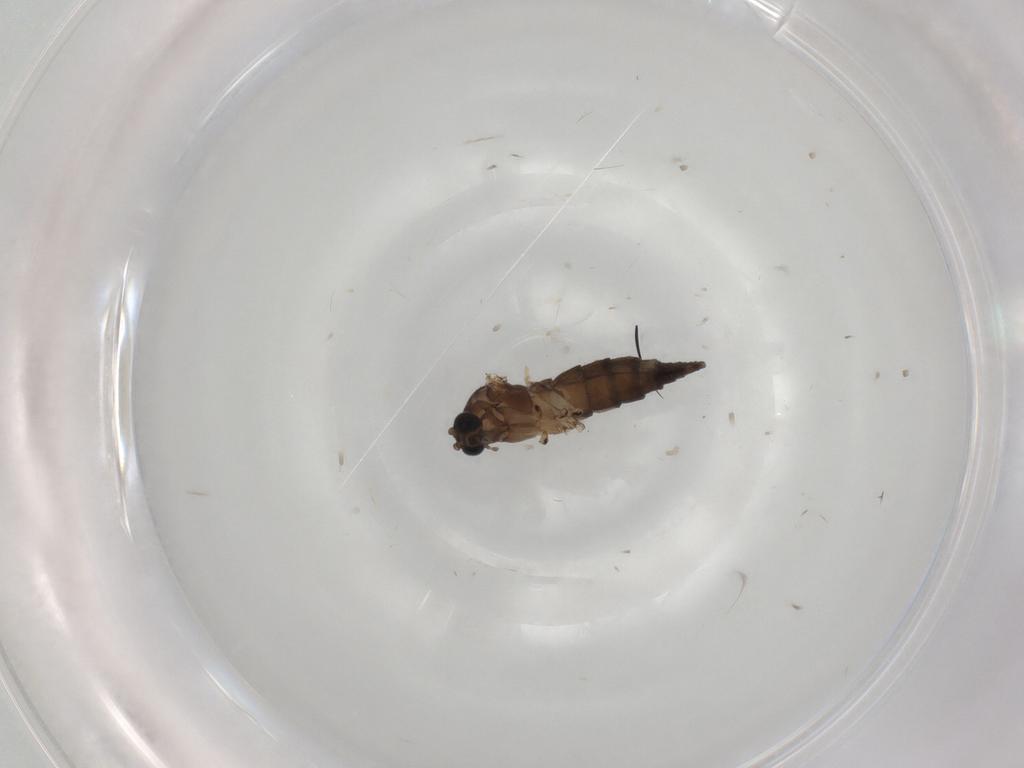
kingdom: Animalia
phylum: Arthropoda
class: Insecta
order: Diptera
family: Sciaridae
